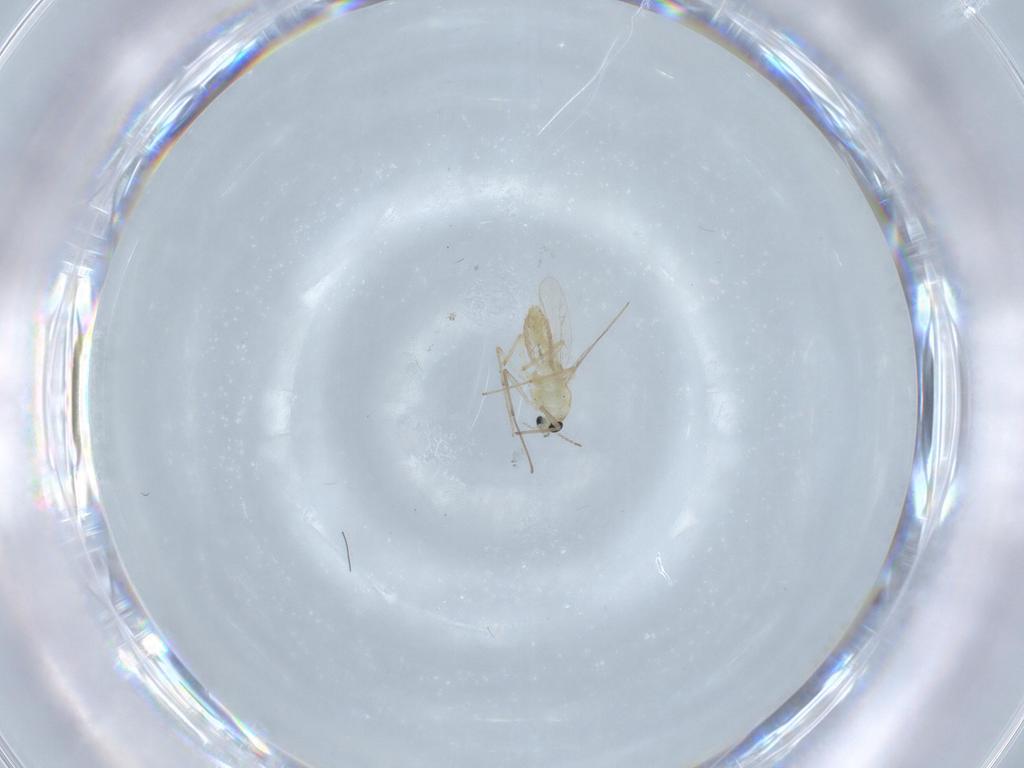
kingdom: Animalia
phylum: Arthropoda
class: Insecta
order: Diptera
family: Chironomidae
